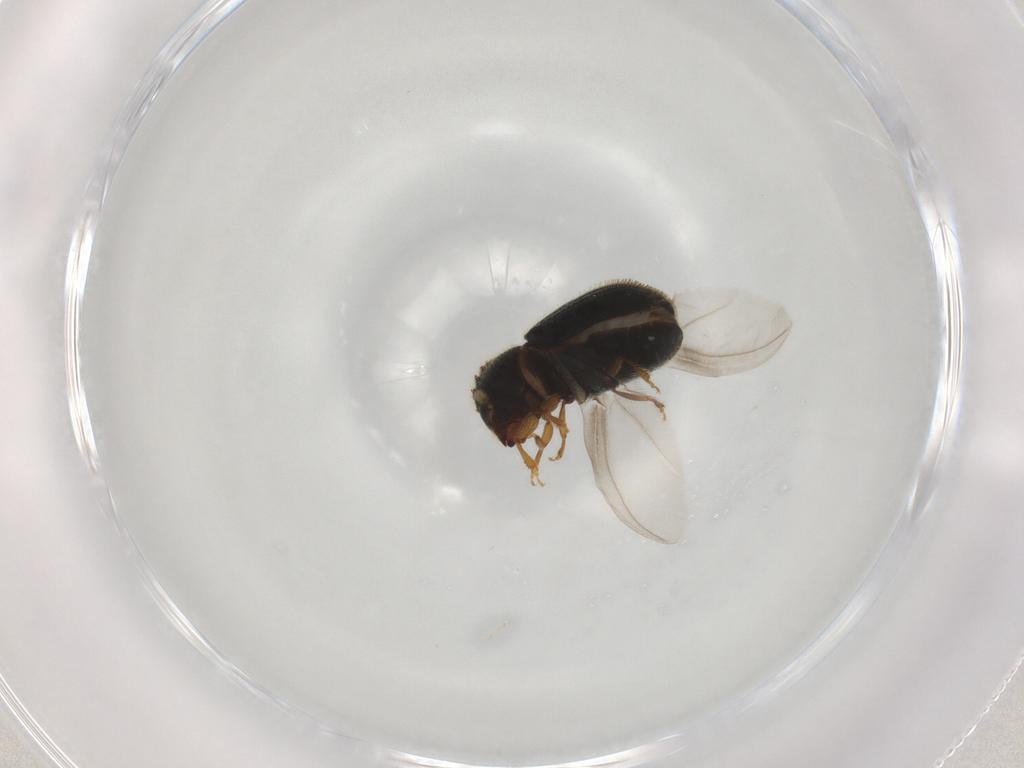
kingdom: Animalia
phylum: Arthropoda
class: Insecta
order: Coleoptera
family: Curculionidae
